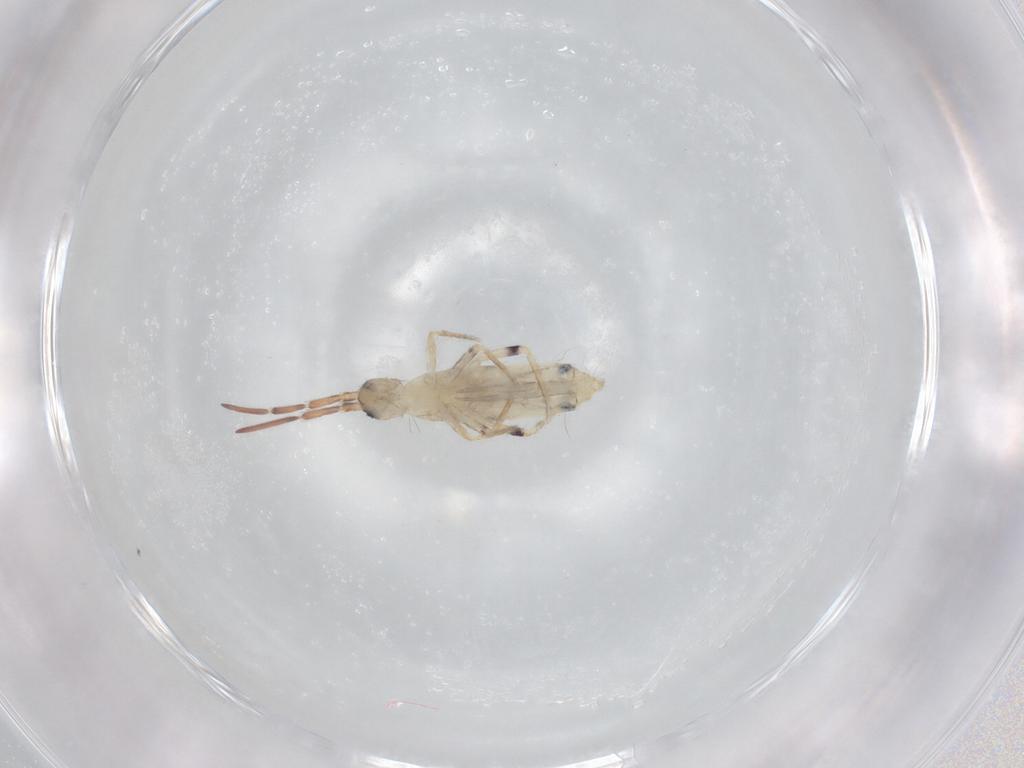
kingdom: Animalia
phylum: Arthropoda
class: Collembola
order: Entomobryomorpha
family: Entomobryidae
